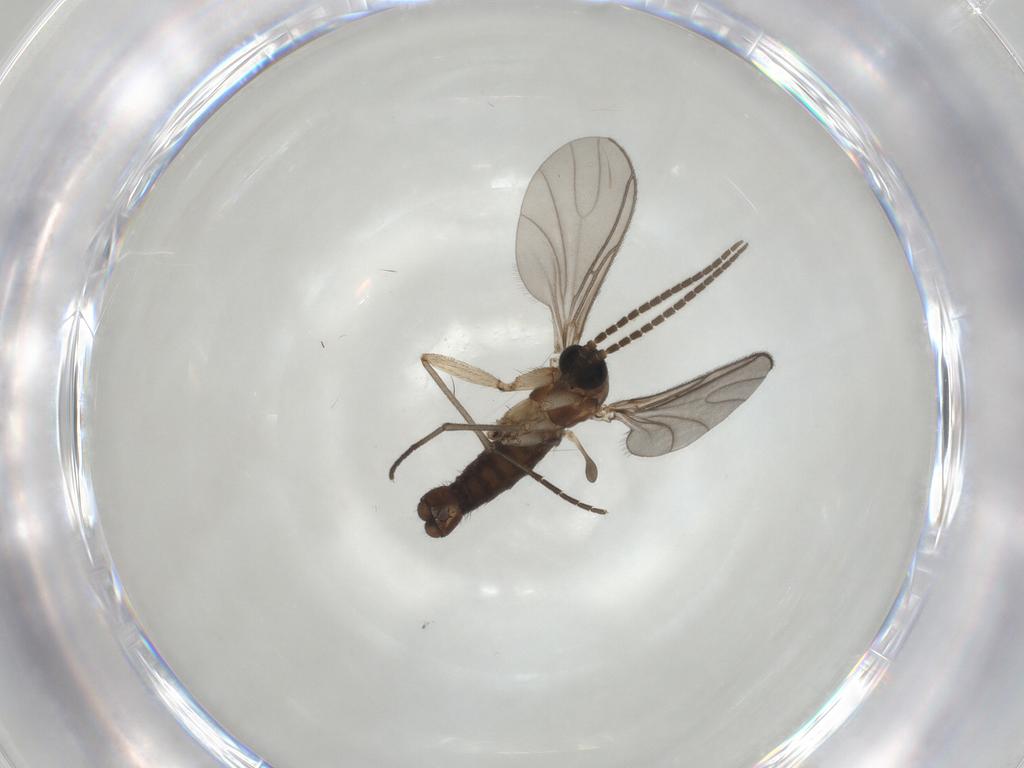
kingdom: Animalia
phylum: Arthropoda
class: Insecta
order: Diptera
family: Sciaridae
